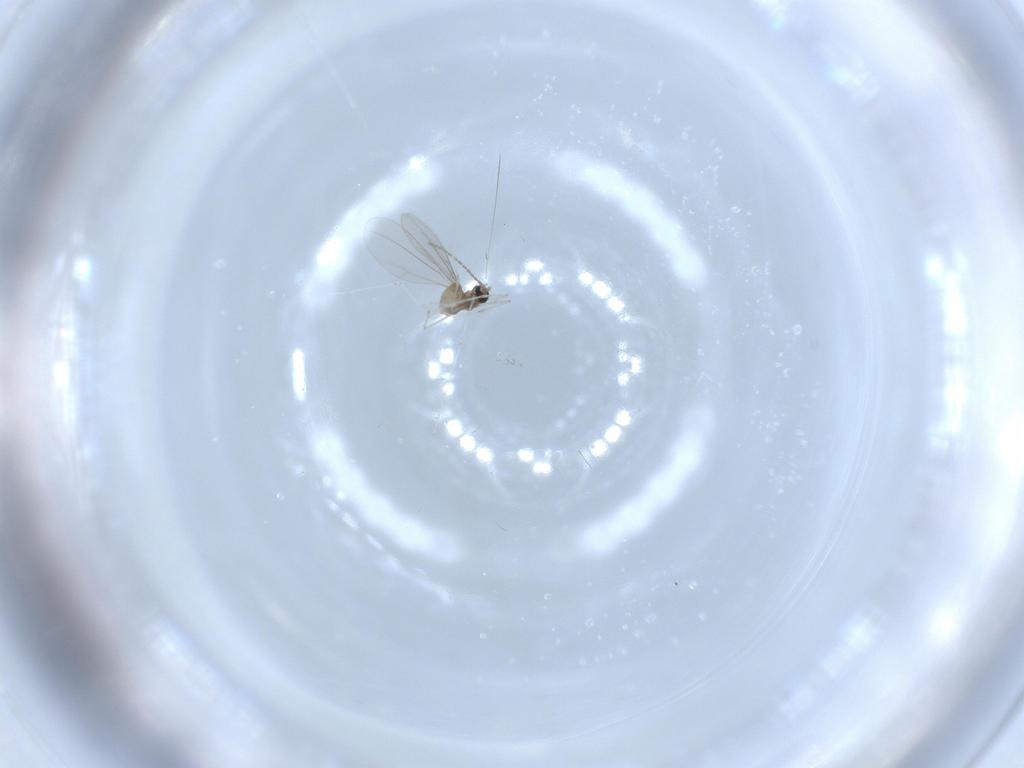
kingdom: Animalia
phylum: Arthropoda
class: Insecta
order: Diptera
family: Cecidomyiidae
